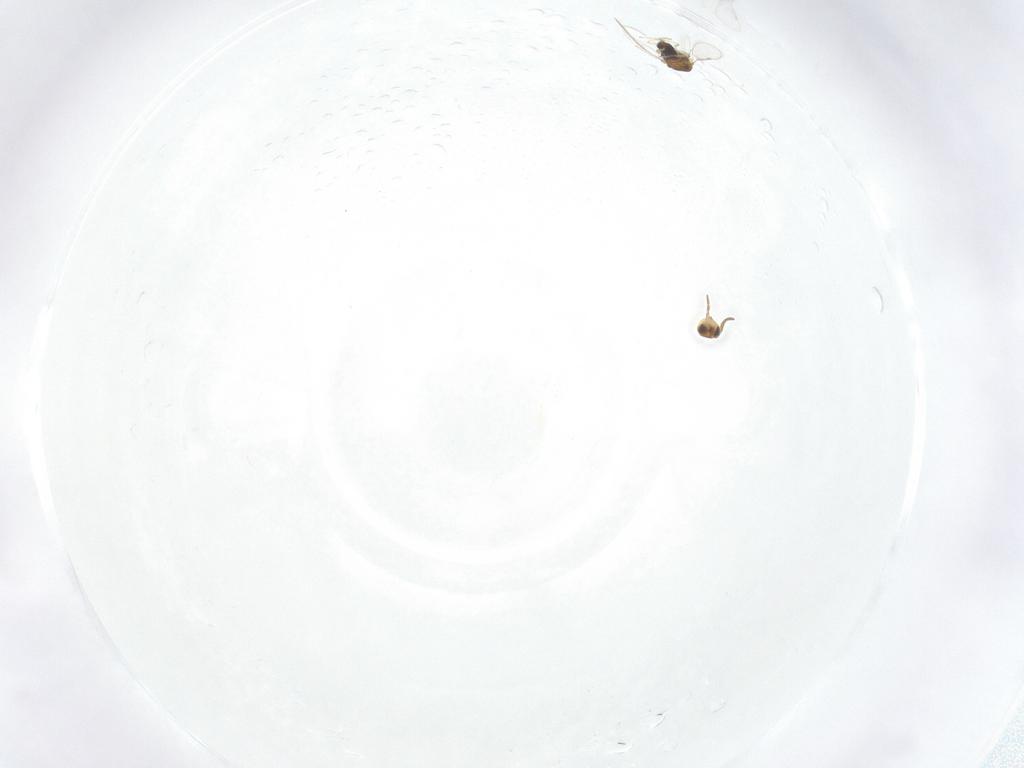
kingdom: Animalia
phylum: Arthropoda
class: Insecta
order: Hymenoptera
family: Aphelinidae
